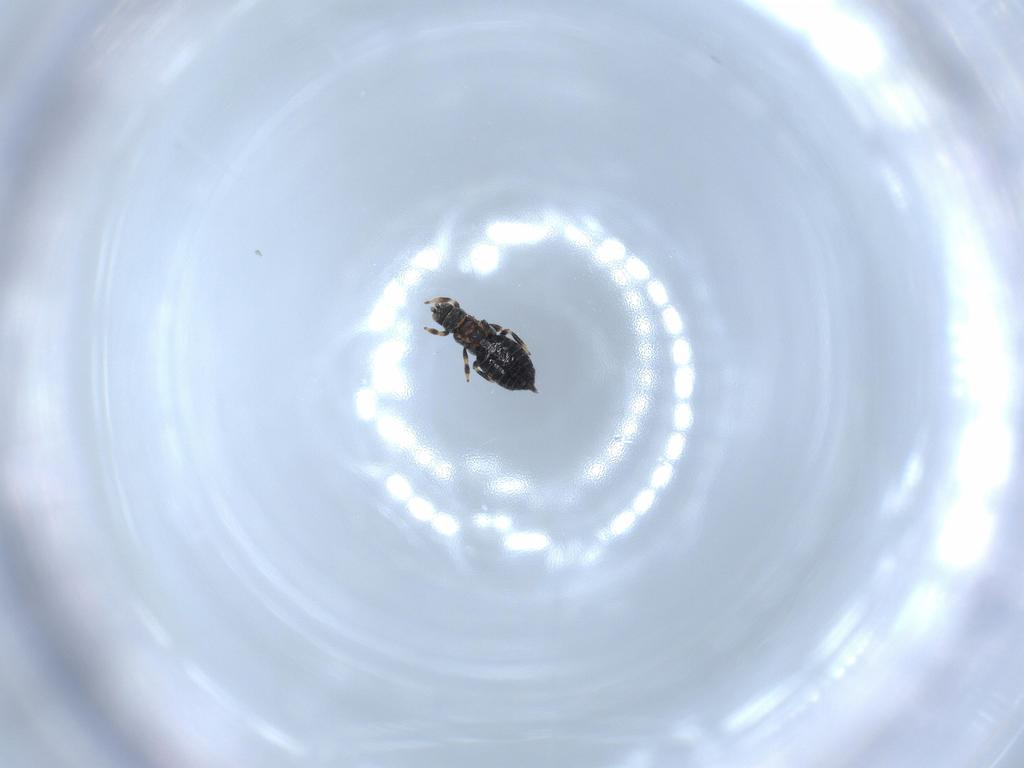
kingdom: Animalia
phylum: Arthropoda
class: Insecta
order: Thysanoptera
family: Thripidae
